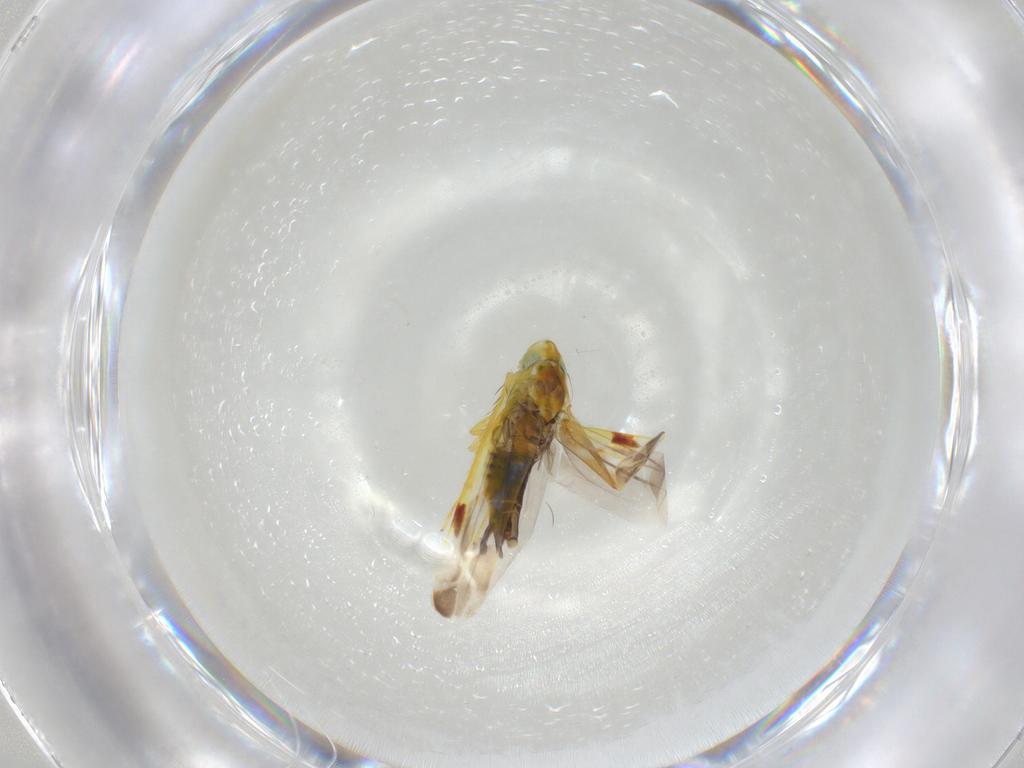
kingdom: Animalia
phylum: Arthropoda
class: Insecta
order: Hemiptera
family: Cicadellidae
